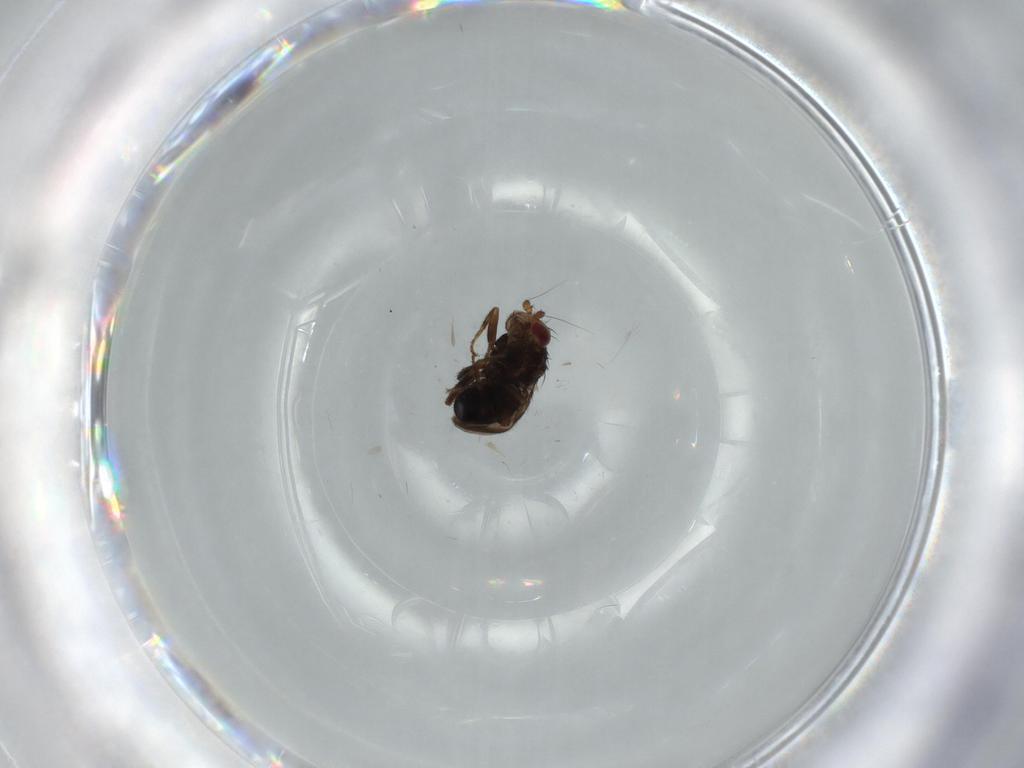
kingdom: Animalia
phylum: Arthropoda
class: Insecta
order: Diptera
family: Sphaeroceridae
